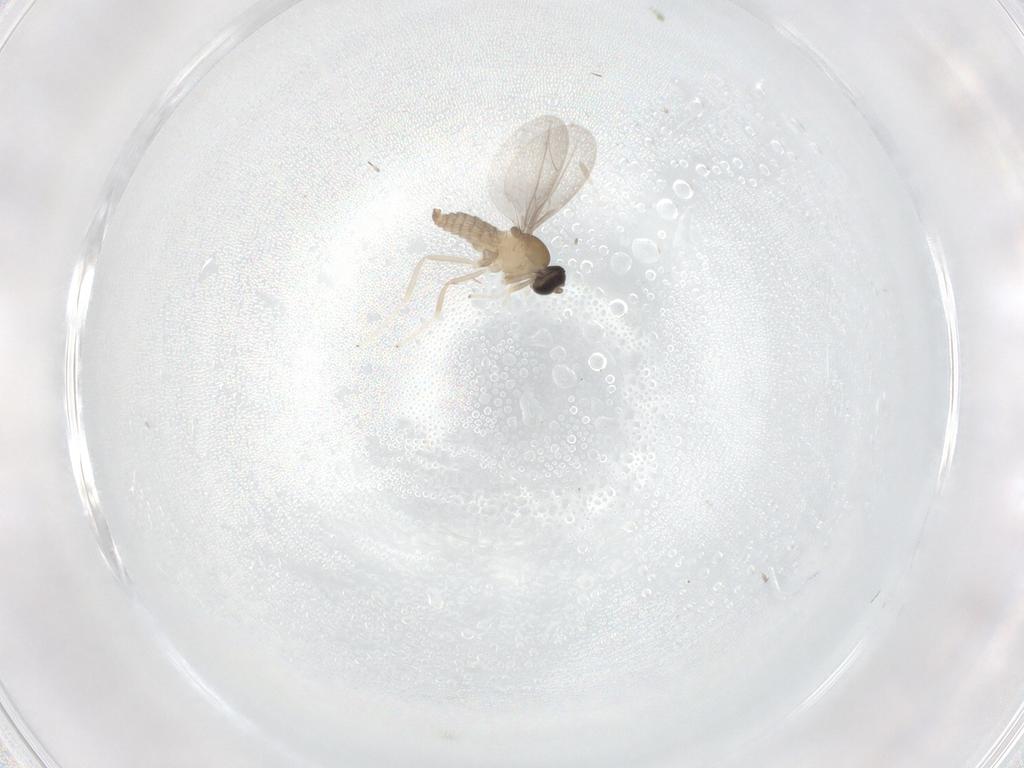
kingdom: Animalia
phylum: Arthropoda
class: Insecta
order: Diptera
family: Cecidomyiidae
